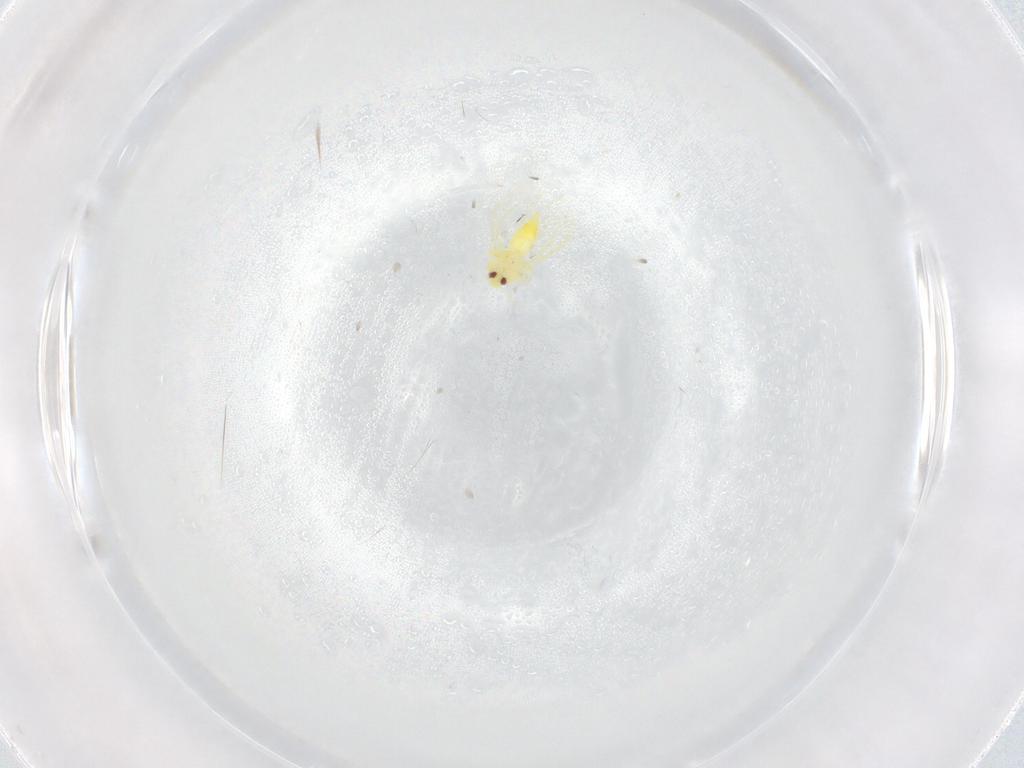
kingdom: Animalia
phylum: Arthropoda
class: Insecta
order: Hemiptera
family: Aleyrodidae
